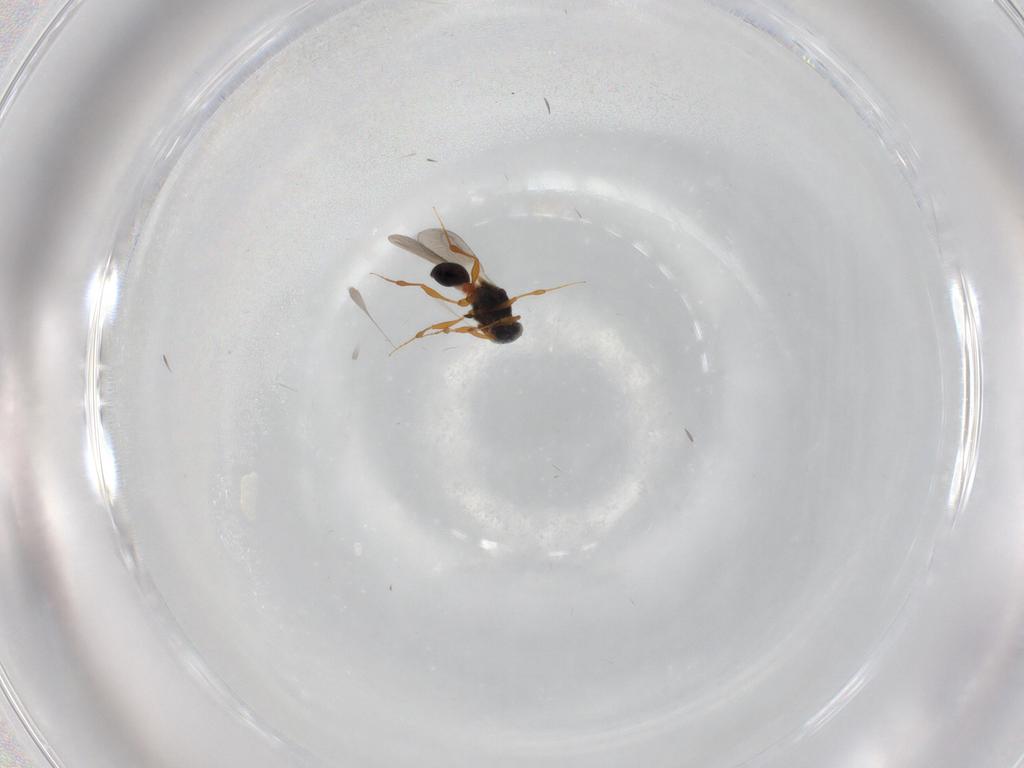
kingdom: Animalia
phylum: Arthropoda
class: Insecta
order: Hymenoptera
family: Platygastridae
